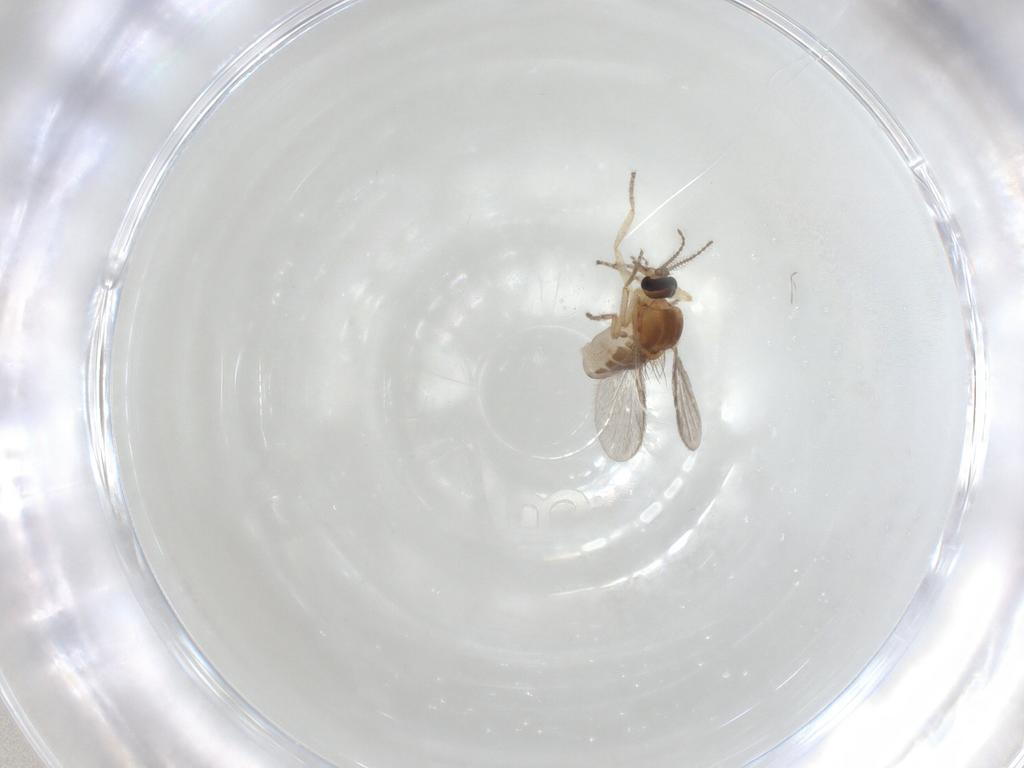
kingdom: Animalia
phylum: Arthropoda
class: Insecta
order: Diptera
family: Ceratopogonidae
